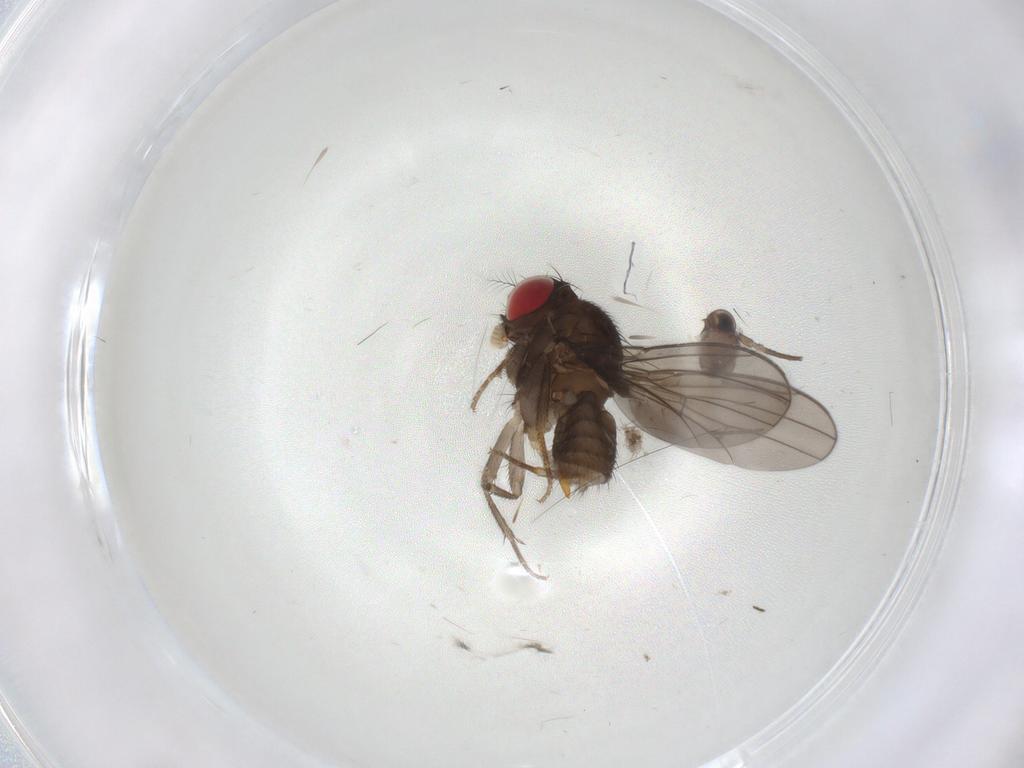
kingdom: Animalia
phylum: Arthropoda
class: Insecta
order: Diptera
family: Drosophilidae
